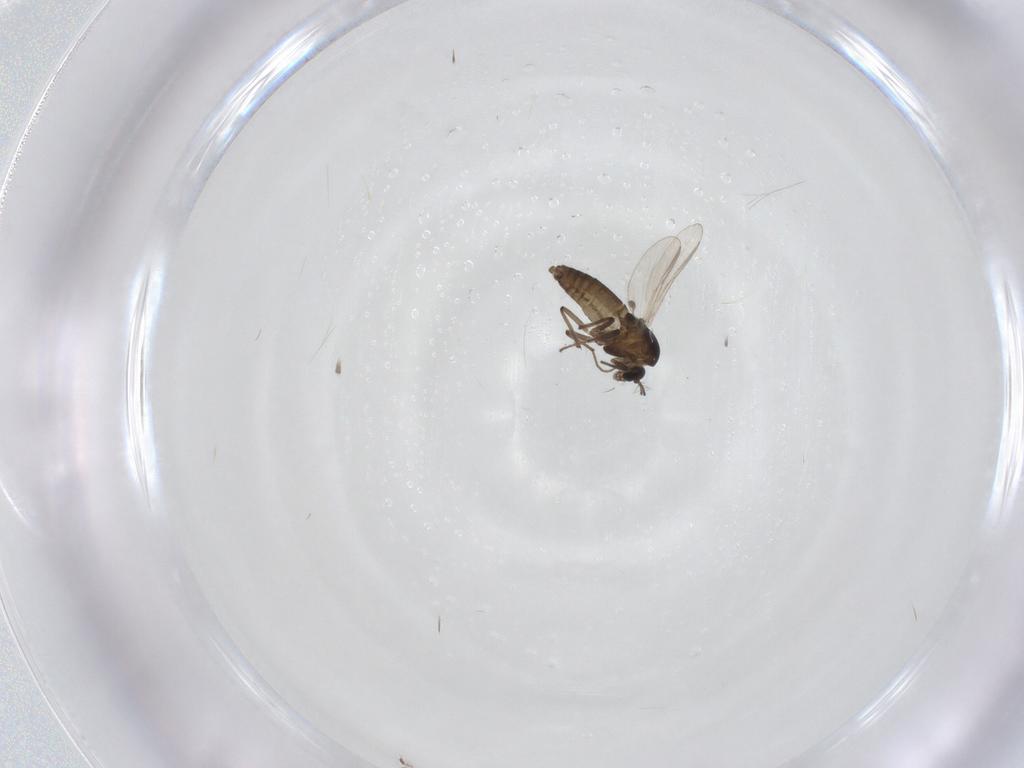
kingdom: Animalia
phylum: Arthropoda
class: Insecta
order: Diptera
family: Chironomidae
